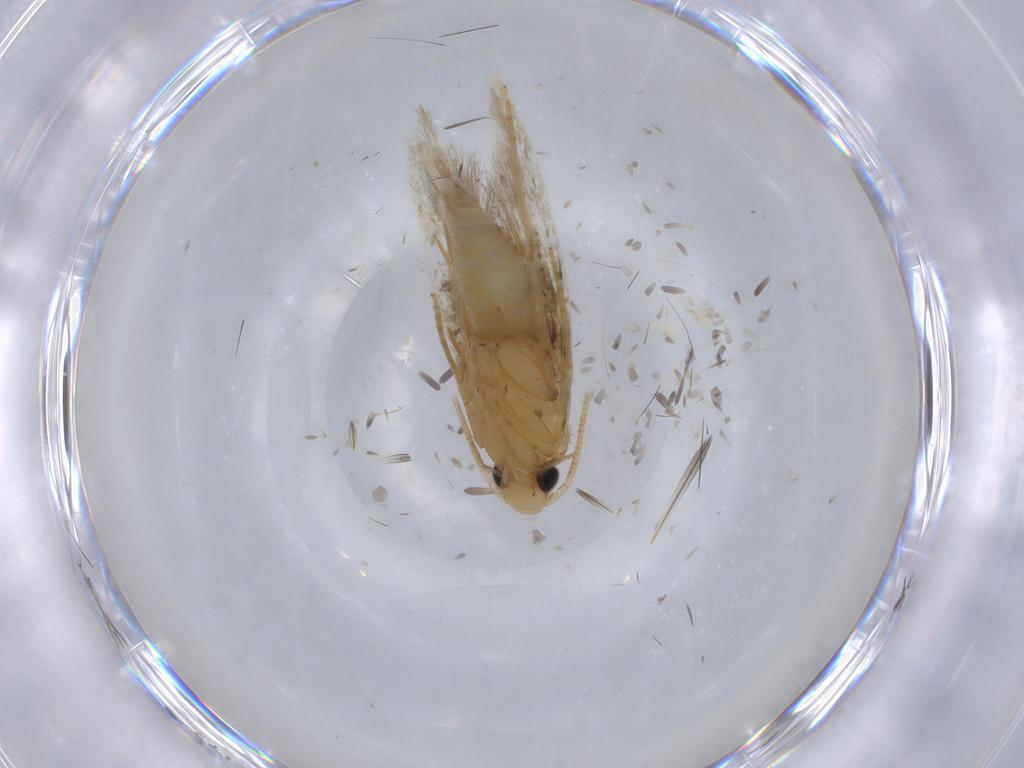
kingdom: Animalia
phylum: Arthropoda
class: Insecta
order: Lepidoptera
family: Tineidae
